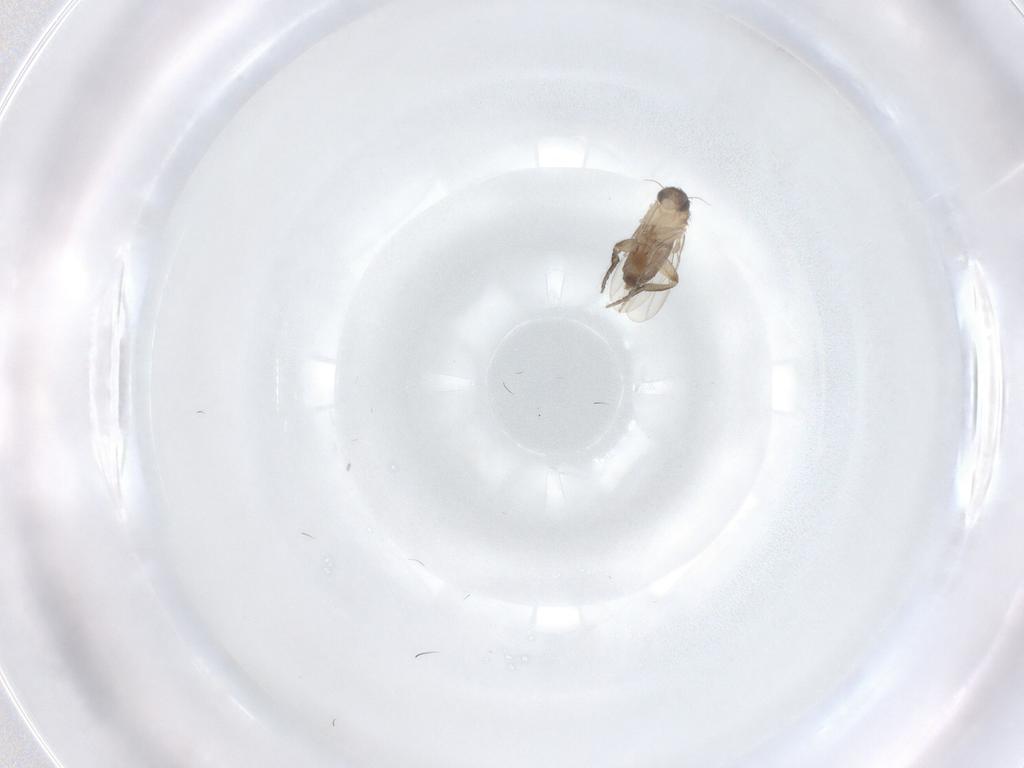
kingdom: Animalia
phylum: Arthropoda
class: Insecta
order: Diptera
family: Phoridae
